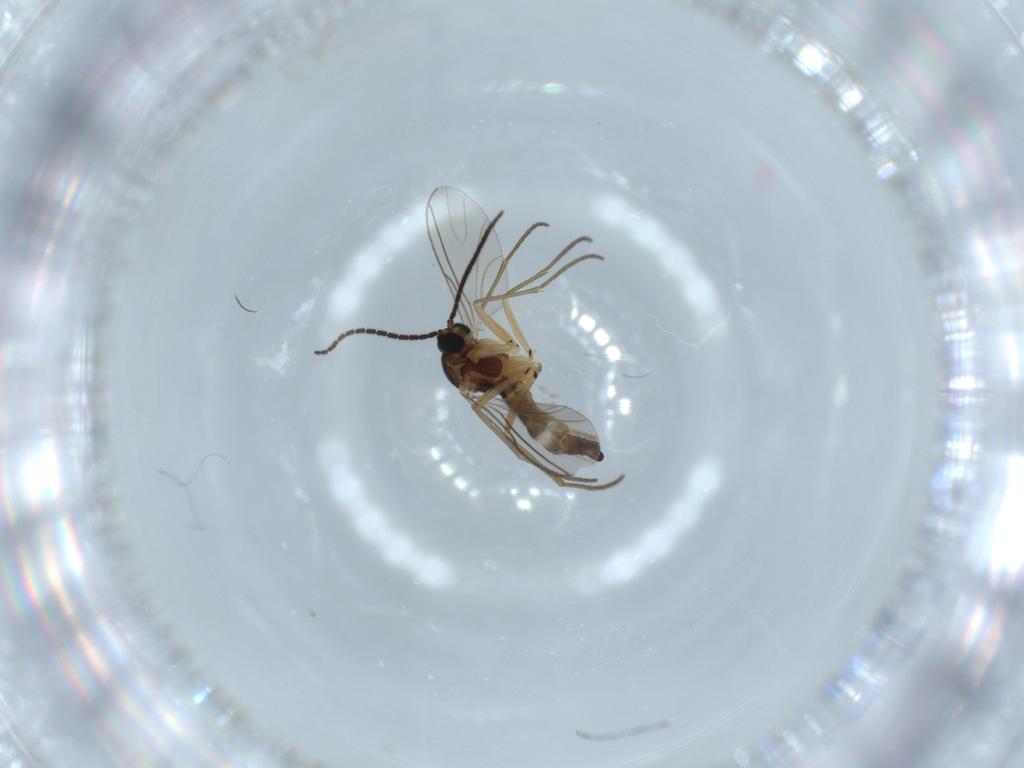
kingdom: Animalia
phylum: Arthropoda
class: Insecta
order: Diptera
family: Sciaridae
